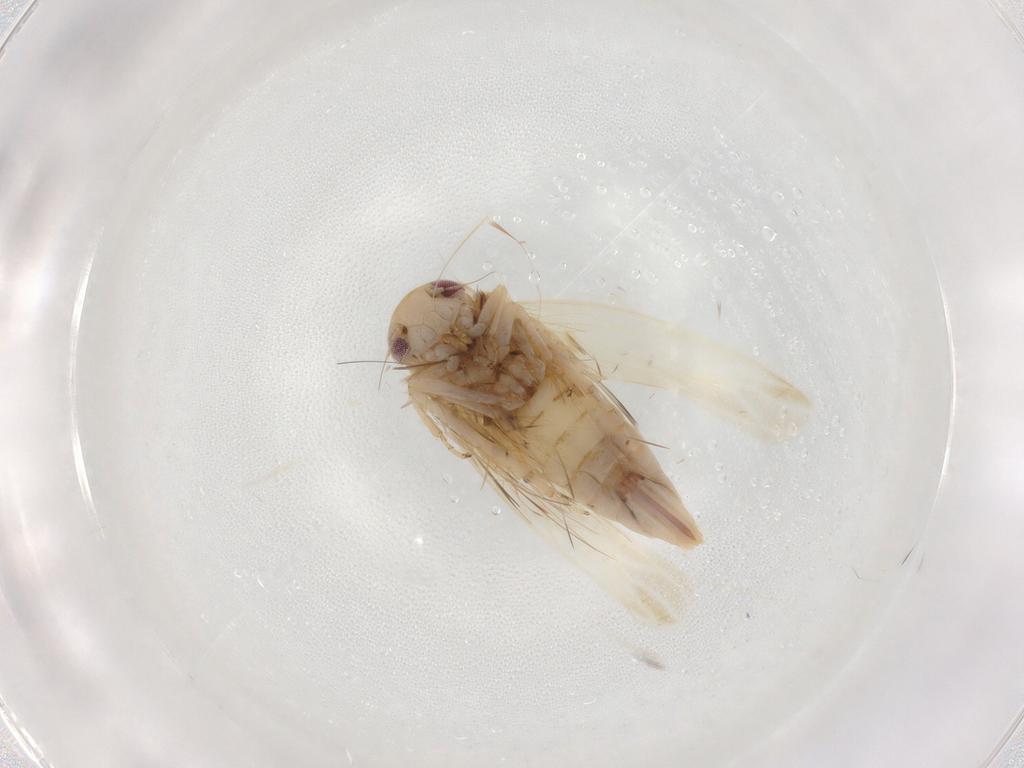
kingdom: Animalia
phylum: Arthropoda
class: Insecta
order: Hemiptera
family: Cicadellidae
